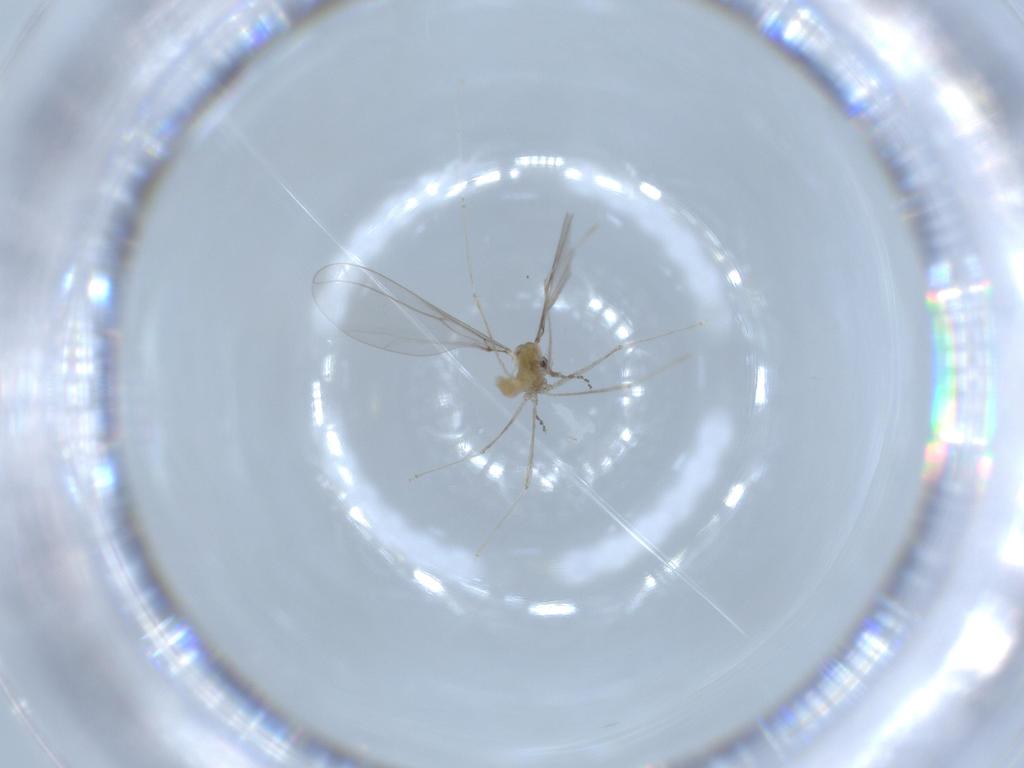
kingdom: Animalia
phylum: Arthropoda
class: Insecta
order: Diptera
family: Cecidomyiidae
